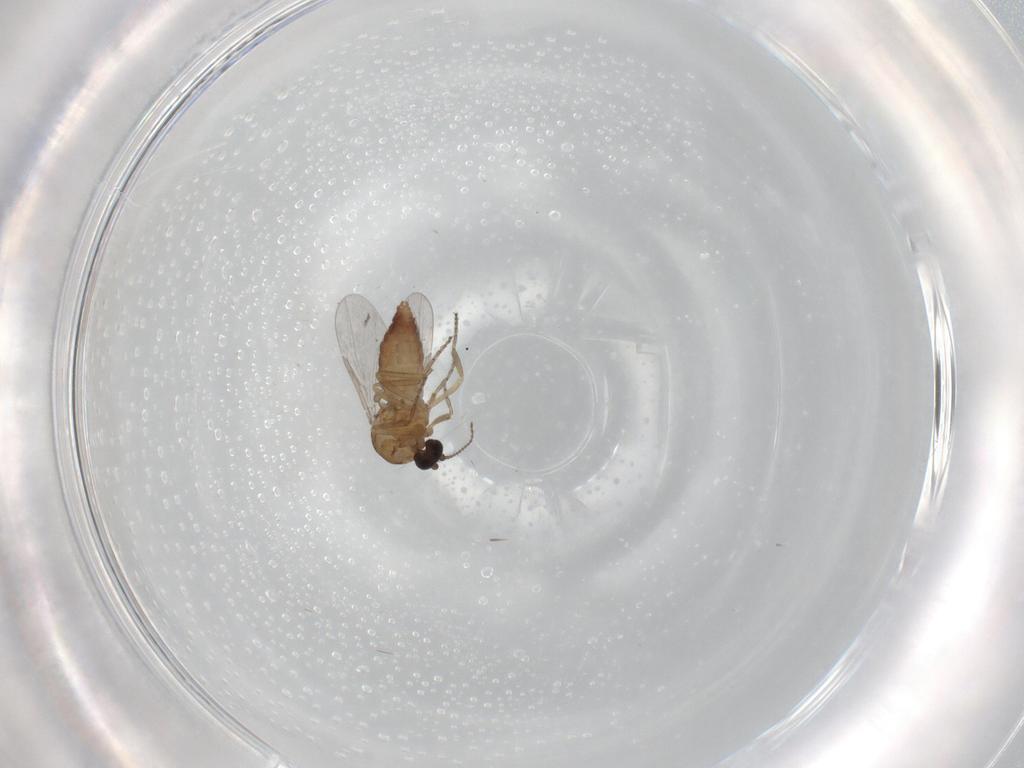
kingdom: Animalia
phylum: Arthropoda
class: Insecta
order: Diptera
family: Ceratopogonidae
